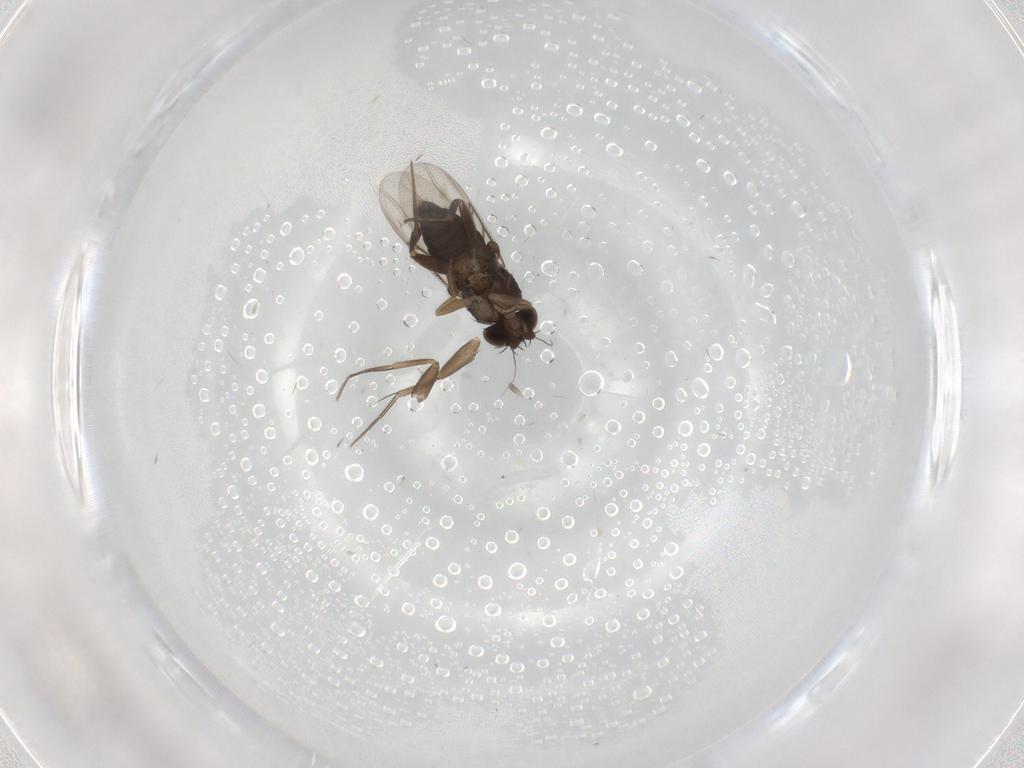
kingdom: Animalia
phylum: Arthropoda
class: Insecta
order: Diptera
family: Phoridae
